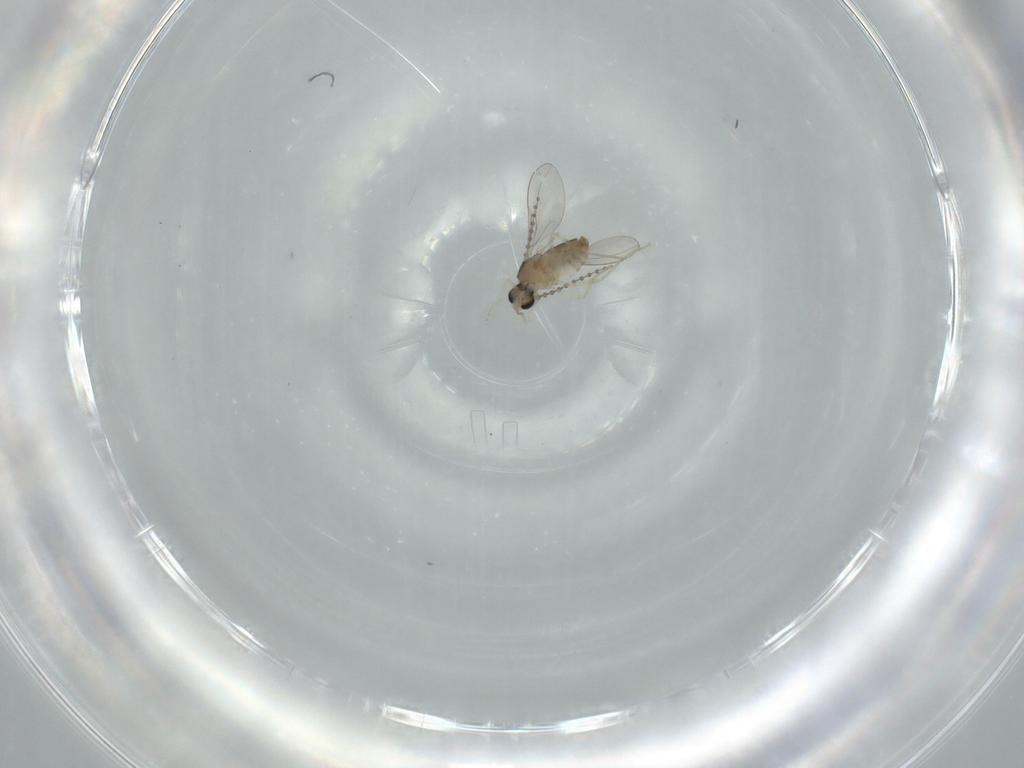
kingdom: Animalia
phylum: Arthropoda
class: Insecta
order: Diptera
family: Cecidomyiidae
